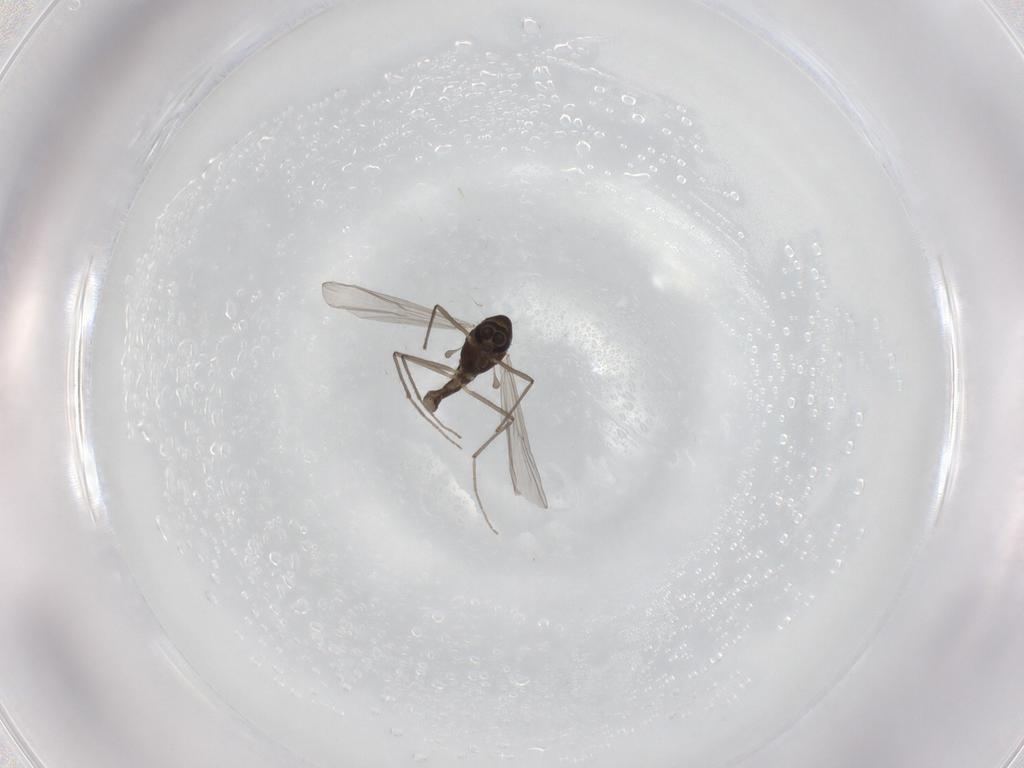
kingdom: Animalia
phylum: Arthropoda
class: Insecta
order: Diptera
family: Chironomidae
